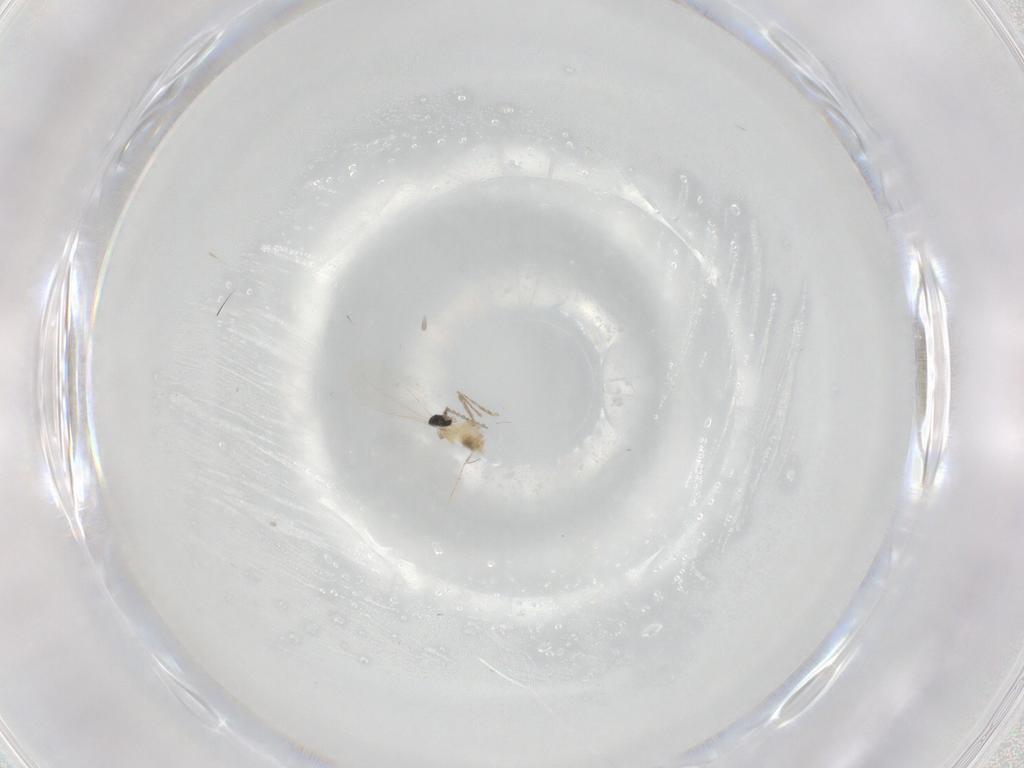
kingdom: Animalia
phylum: Arthropoda
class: Insecta
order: Diptera
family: Cecidomyiidae
